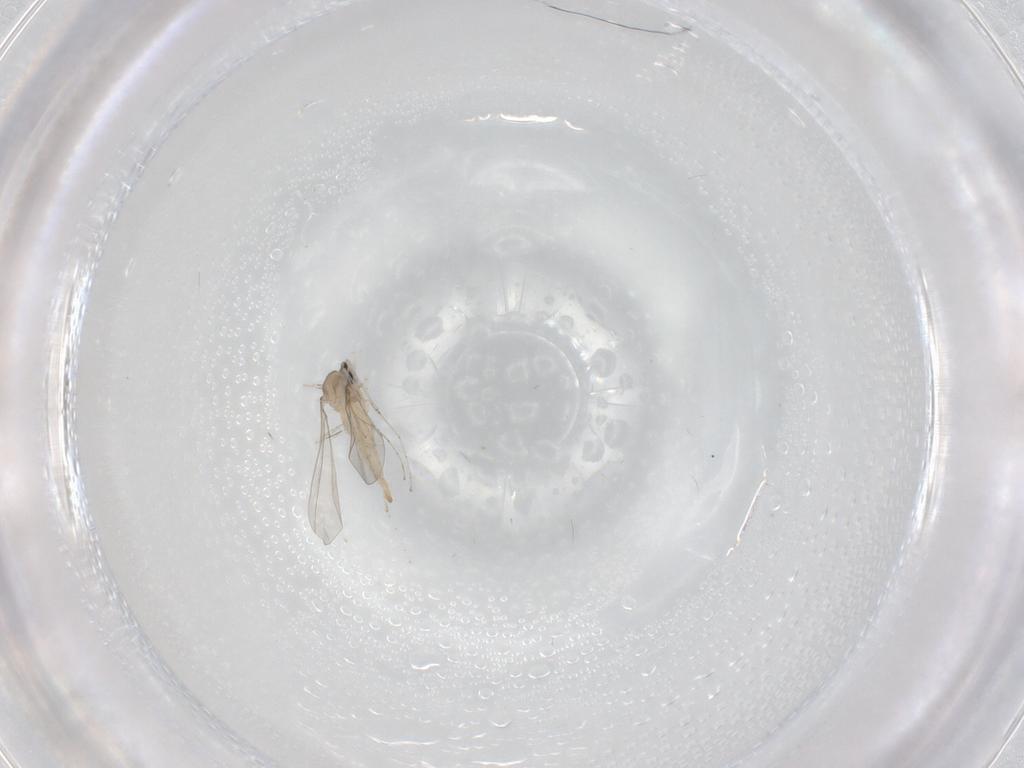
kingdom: Animalia
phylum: Arthropoda
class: Insecta
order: Diptera
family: Cecidomyiidae
